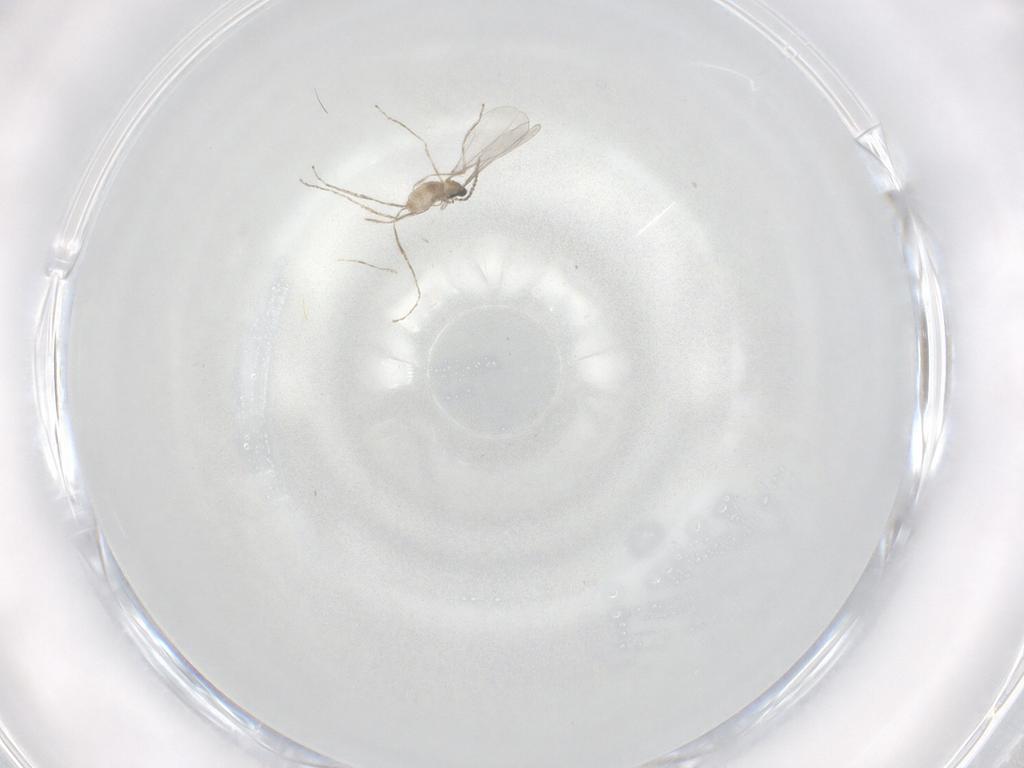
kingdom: Animalia
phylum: Arthropoda
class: Insecta
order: Diptera
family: Cecidomyiidae
